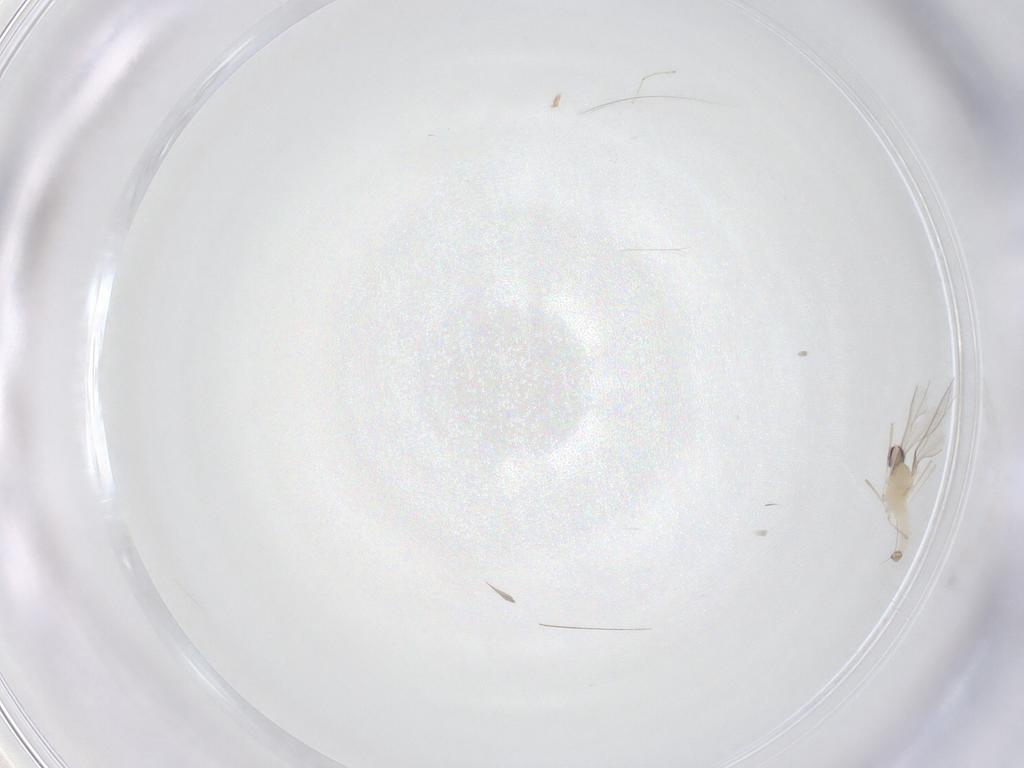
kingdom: Animalia
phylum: Arthropoda
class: Insecta
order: Diptera
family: Cecidomyiidae
